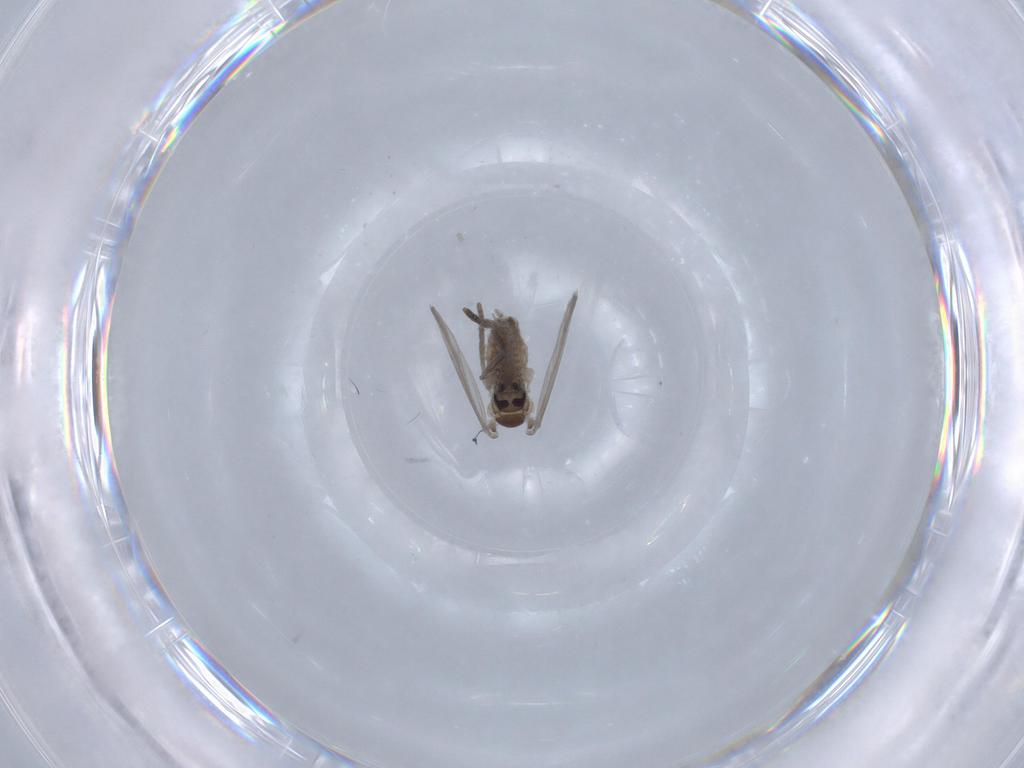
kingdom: Animalia
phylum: Arthropoda
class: Insecta
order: Diptera
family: Psychodidae
